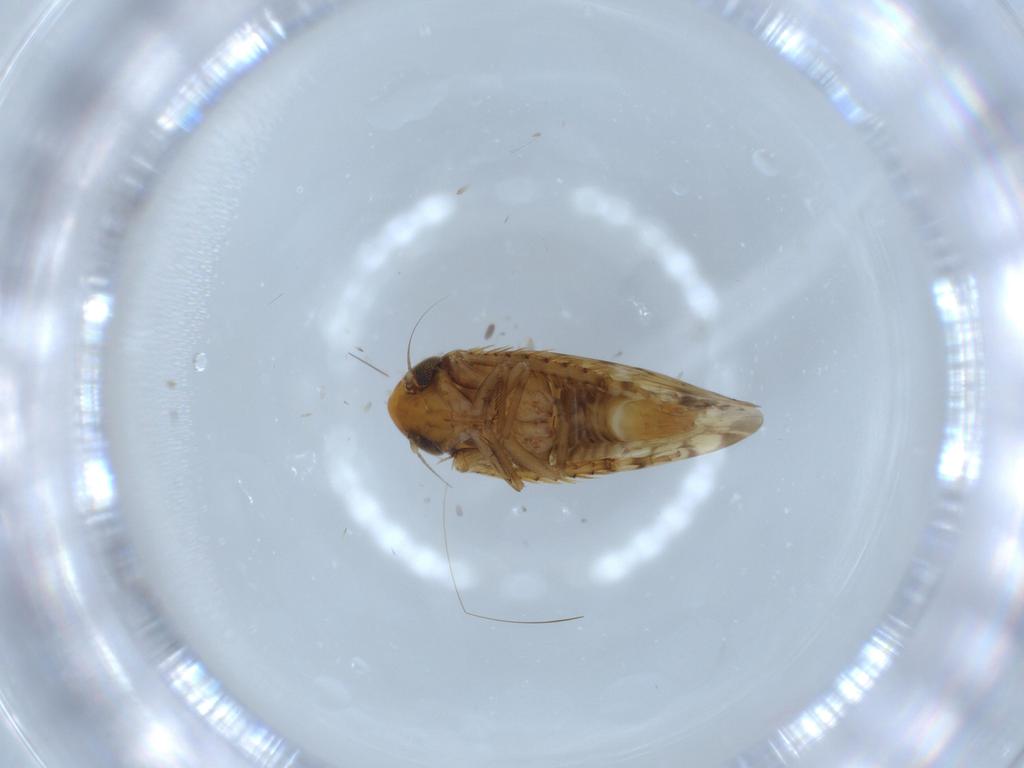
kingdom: Animalia
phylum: Arthropoda
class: Insecta
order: Hemiptera
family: Cicadellidae
